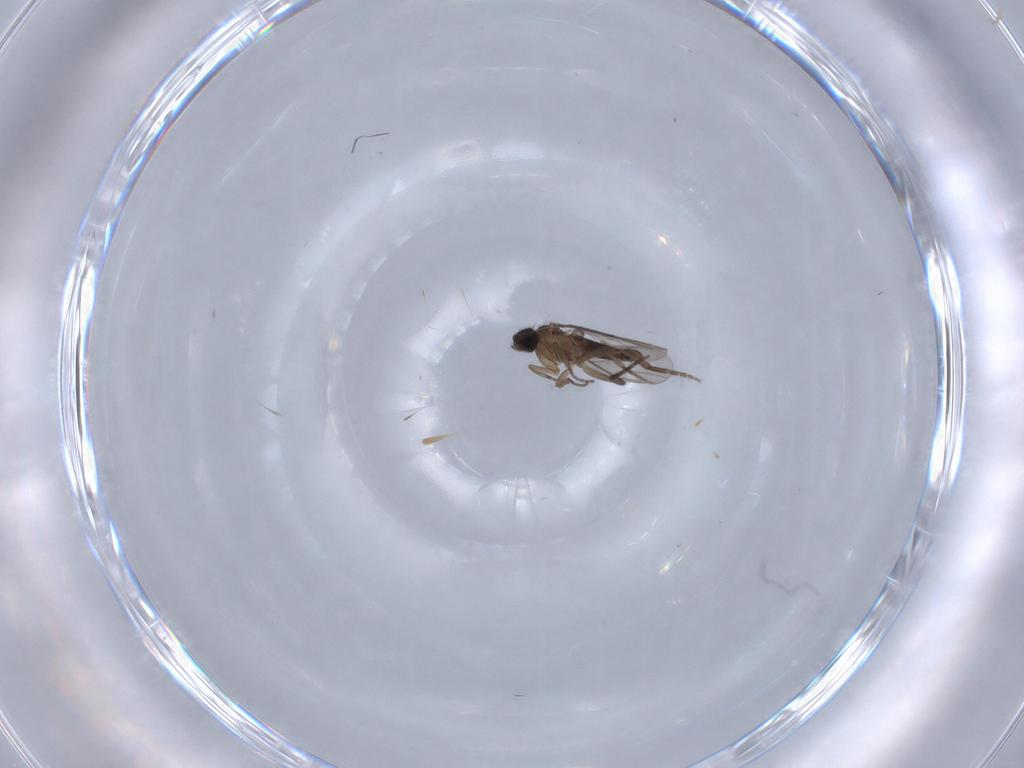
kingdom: Animalia
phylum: Arthropoda
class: Insecta
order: Diptera
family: Phoridae
